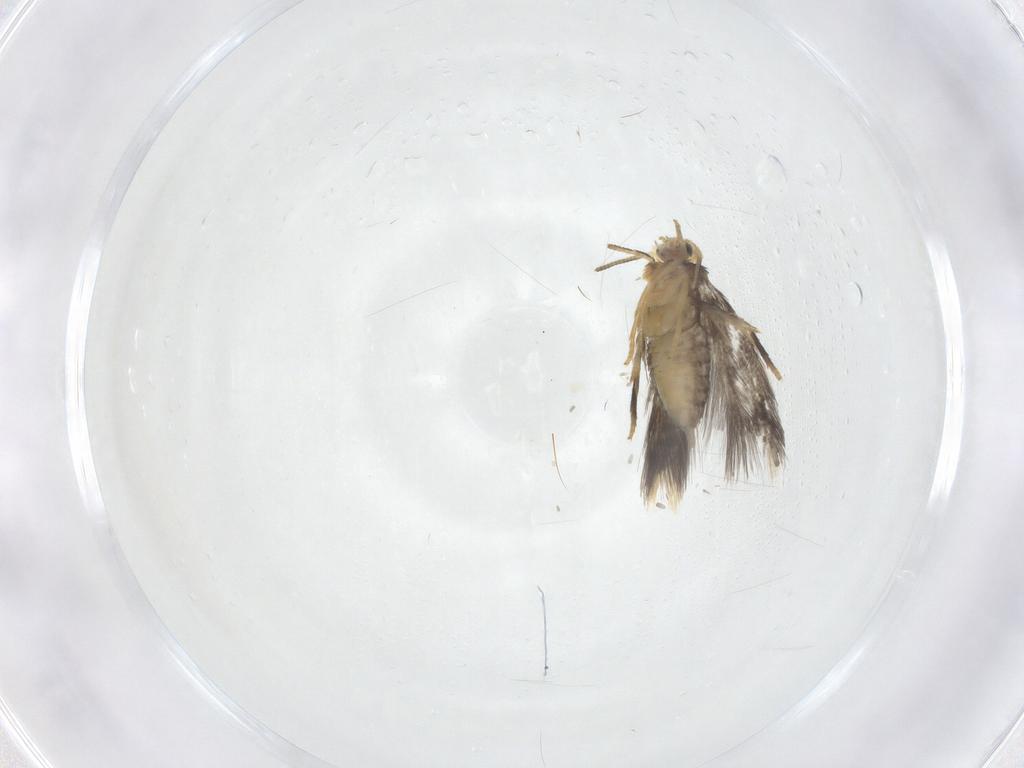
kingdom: Animalia
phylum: Arthropoda
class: Insecta
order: Lepidoptera
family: Nepticulidae
